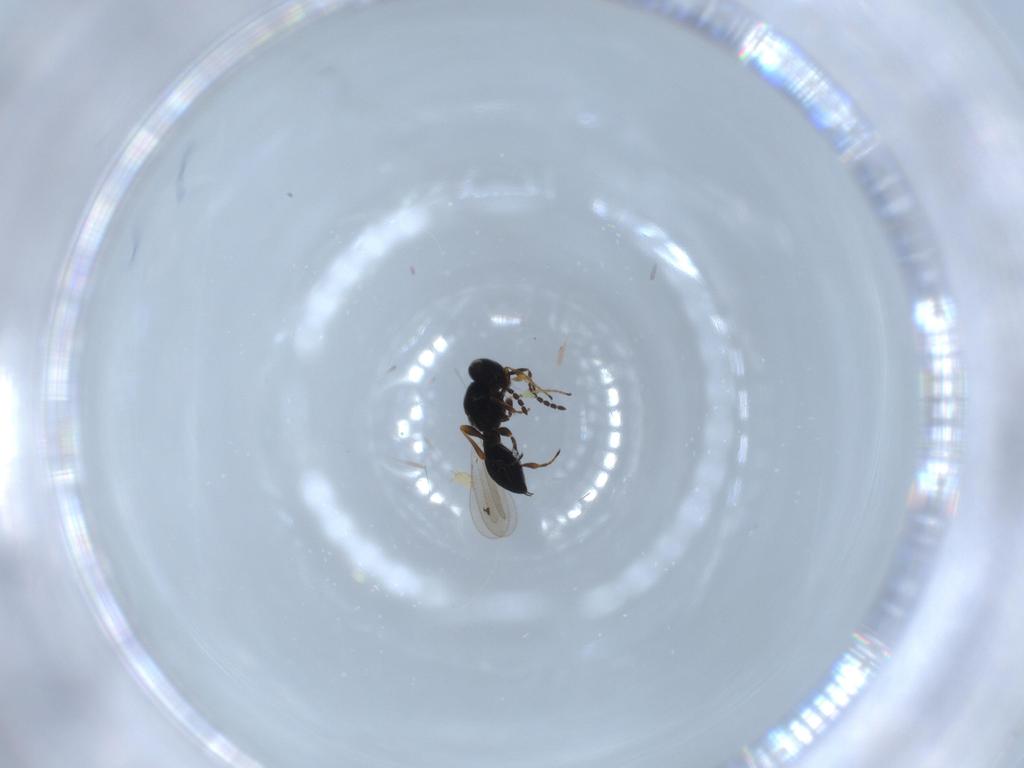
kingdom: Animalia
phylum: Arthropoda
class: Insecta
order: Hymenoptera
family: Platygastridae
